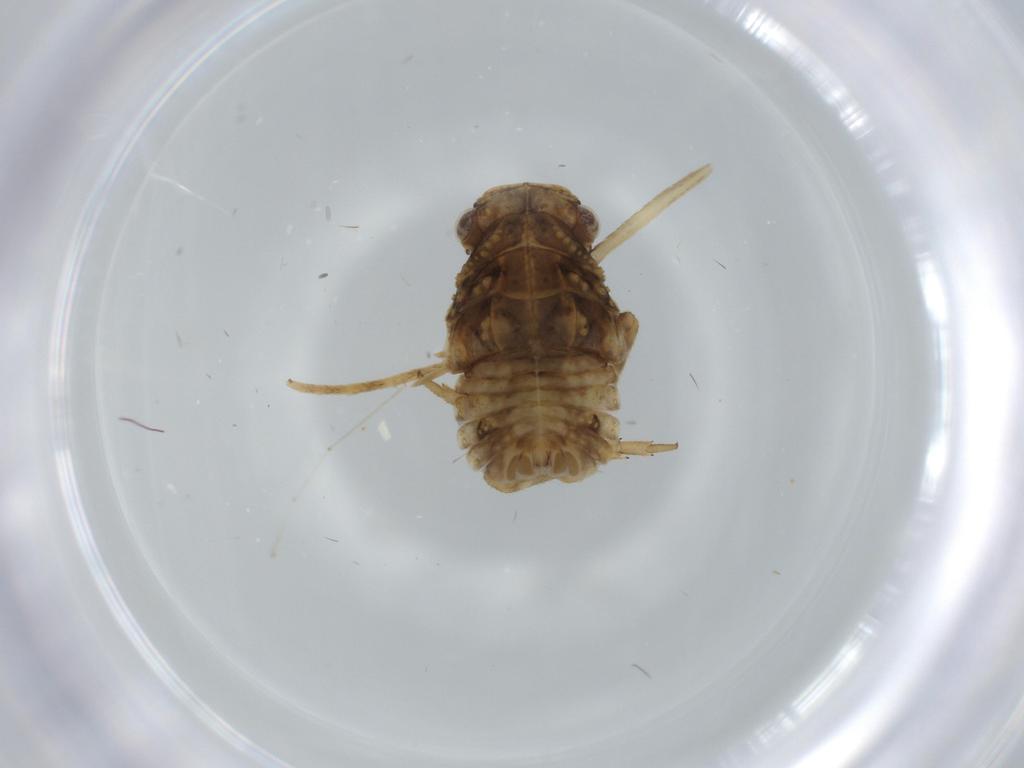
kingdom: Animalia
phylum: Arthropoda
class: Insecta
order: Hemiptera
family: Fulgoroidea_incertae_sedis
